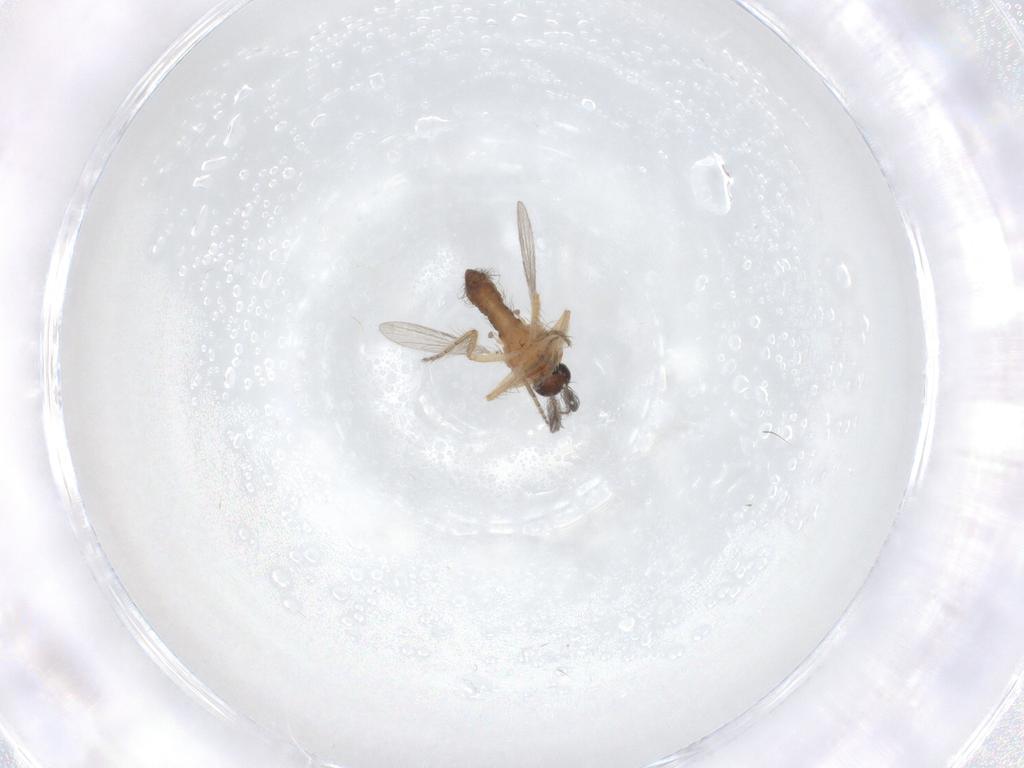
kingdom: Animalia
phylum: Arthropoda
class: Insecta
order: Diptera
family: Ceratopogonidae
